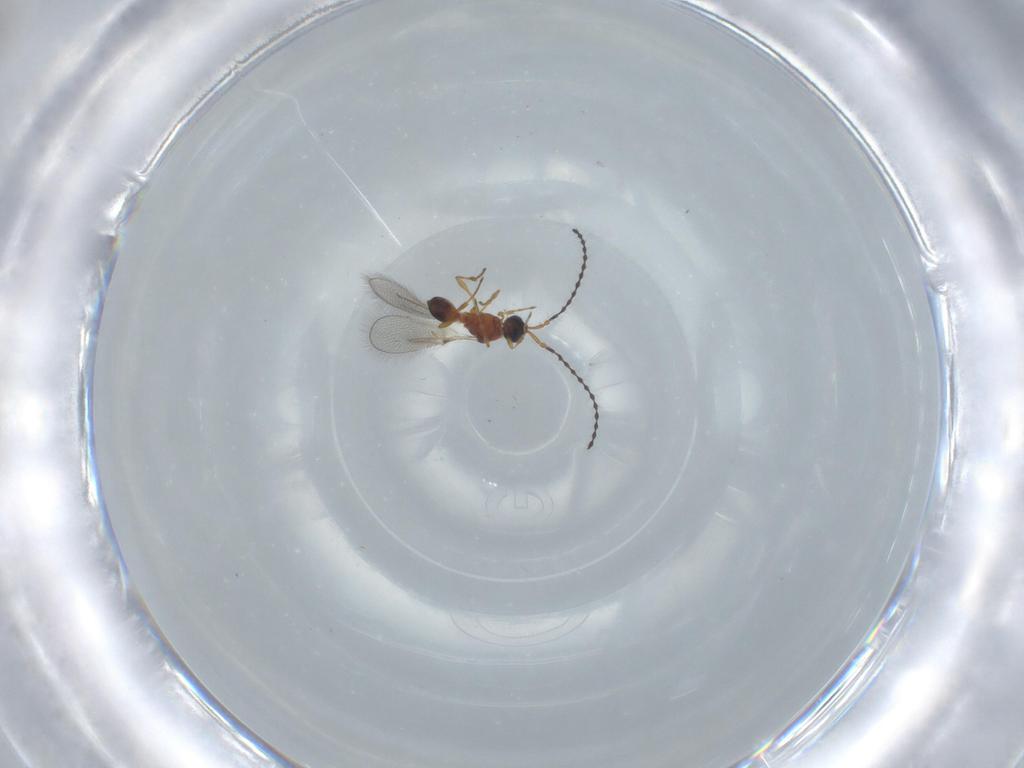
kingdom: Animalia
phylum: Arthropoda
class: Insecta
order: Hymenoptera
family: Diapriidae
